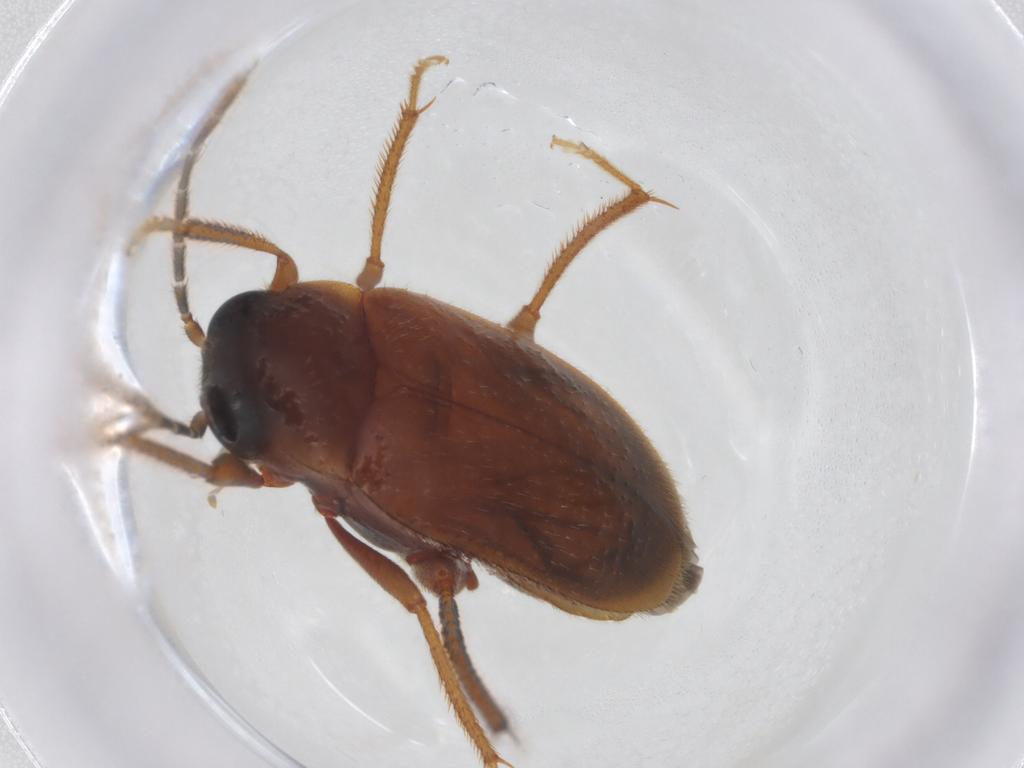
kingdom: Animalia
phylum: Arthropoda
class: Insecta
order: Coleoptera
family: Ptilodactylidae
